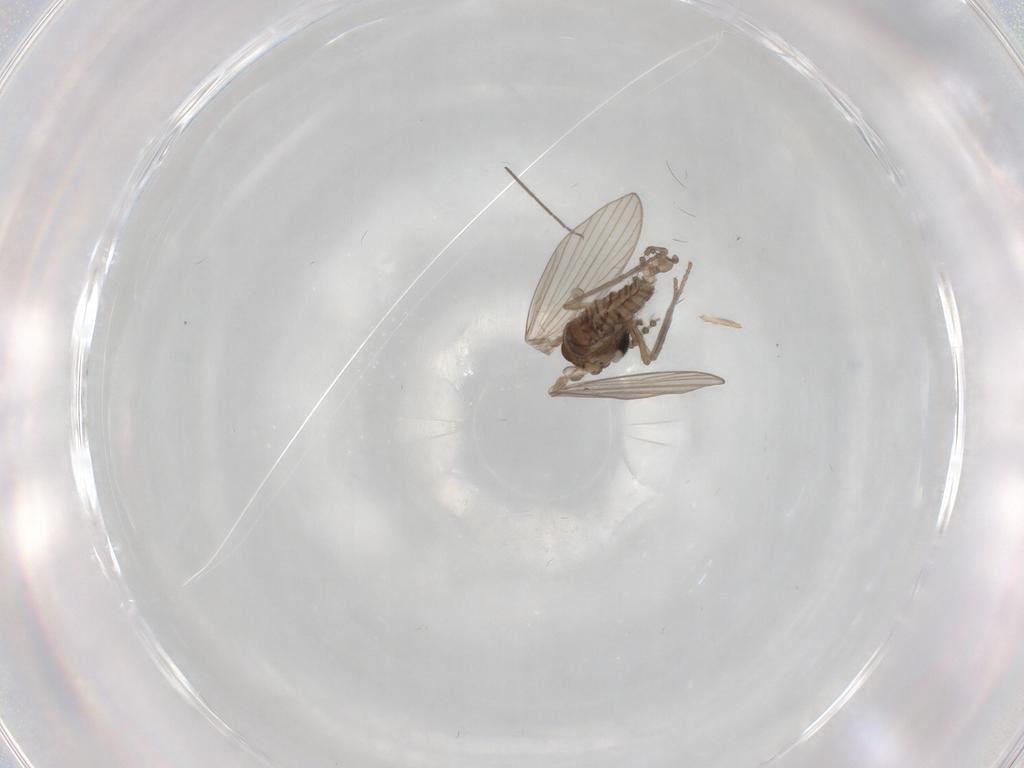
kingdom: Animalia
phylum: Arthropoda
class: Insecta
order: Diptera
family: Psychodidae
